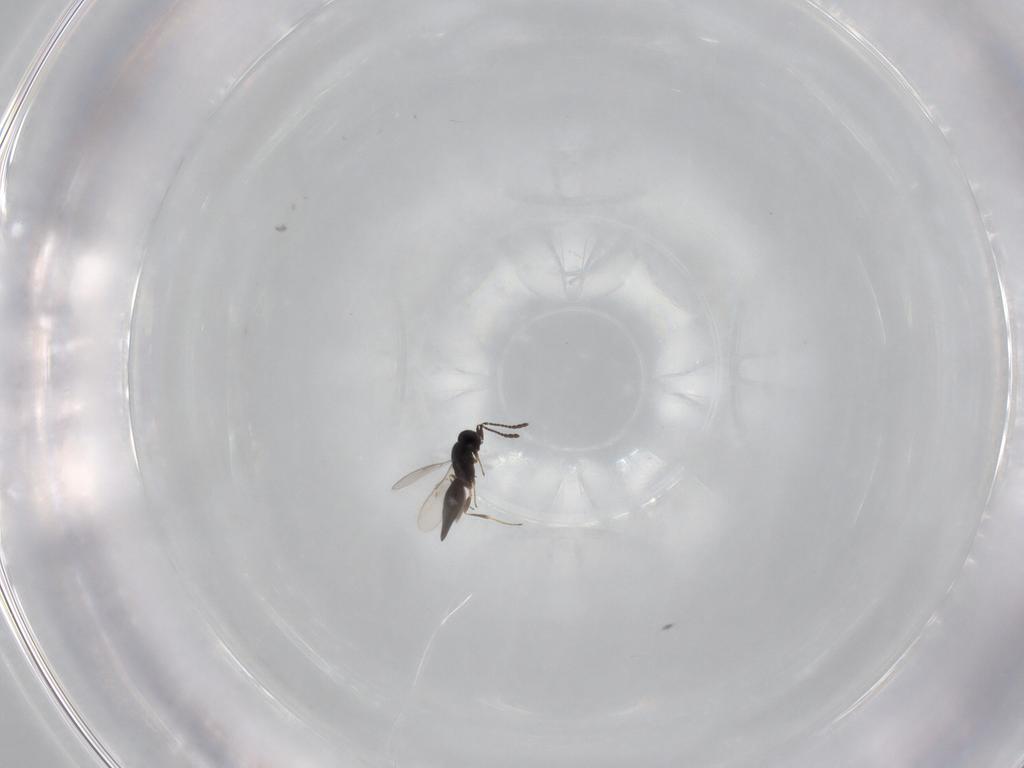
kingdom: Animalia
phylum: Arthropoda
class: Insecta
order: Hymenoptera
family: Scelionidae
